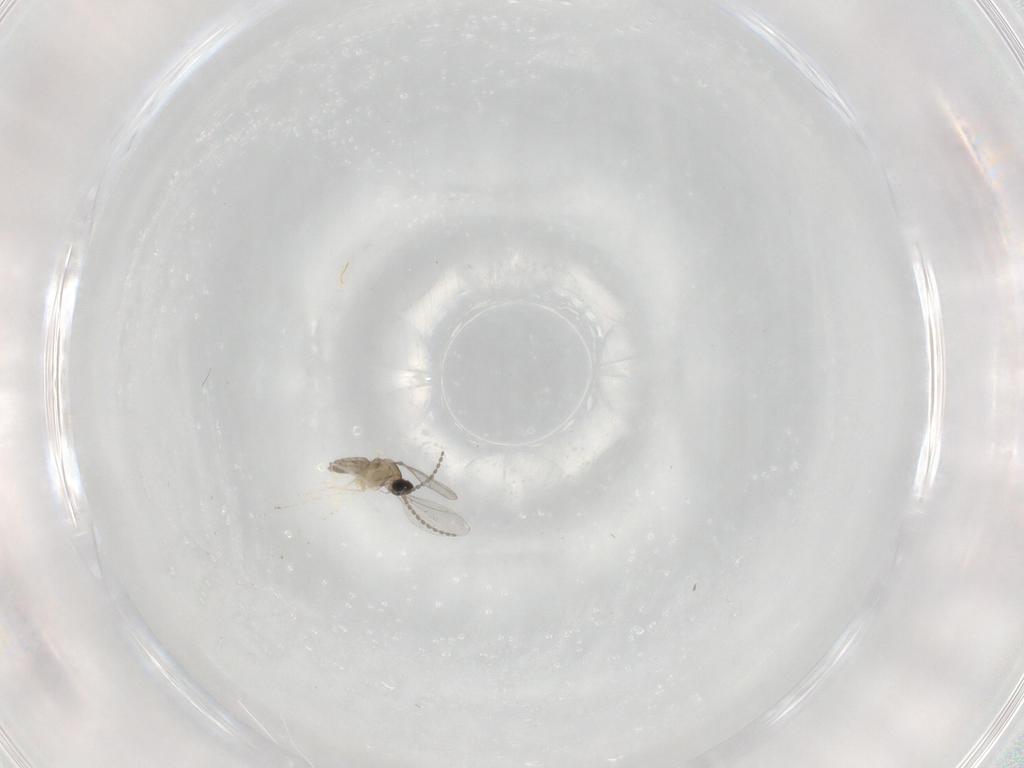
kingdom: Animalia
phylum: Arthropoda
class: Insecta
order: Diptera
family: Cecidomyiidae
